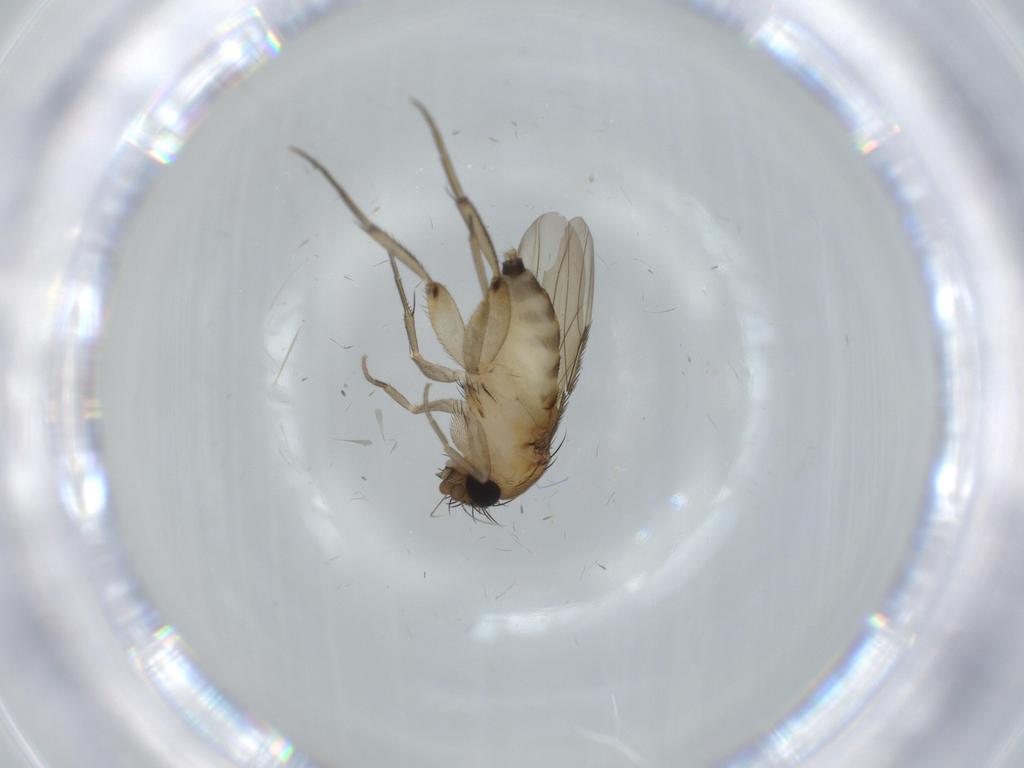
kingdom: Animalia
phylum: Arthropoda
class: Insecta
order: Diptera
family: Phoridae
